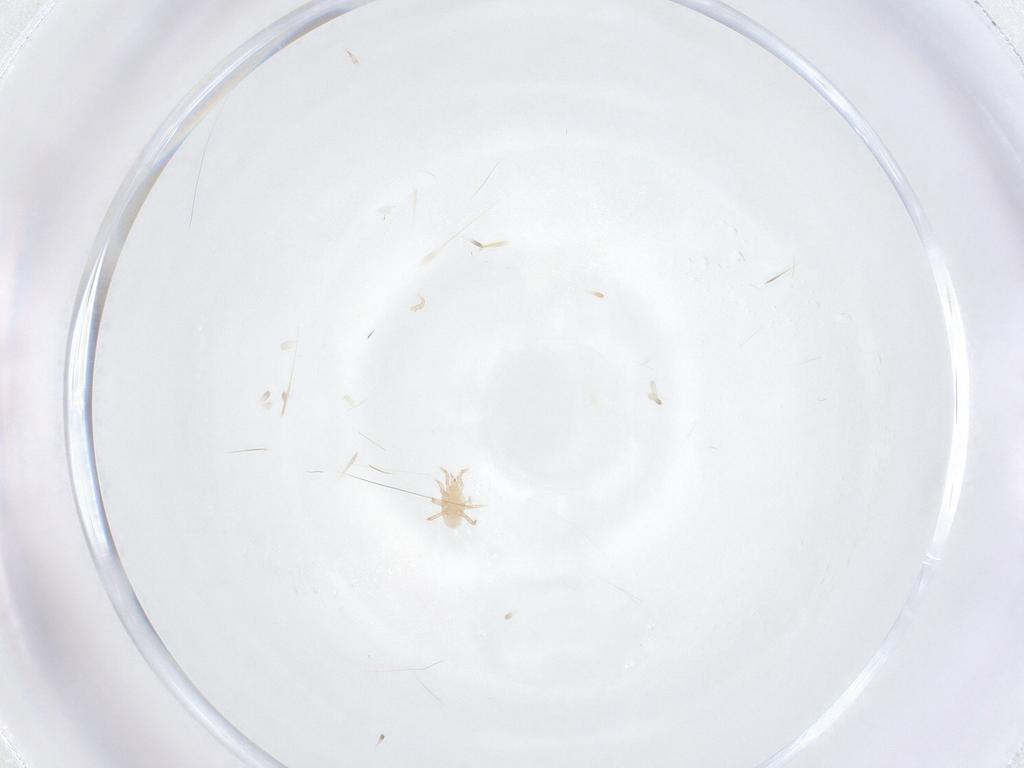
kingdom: Animalia
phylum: Arthropoda
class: Arachnida
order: Mesostigmata
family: Melicharidae
